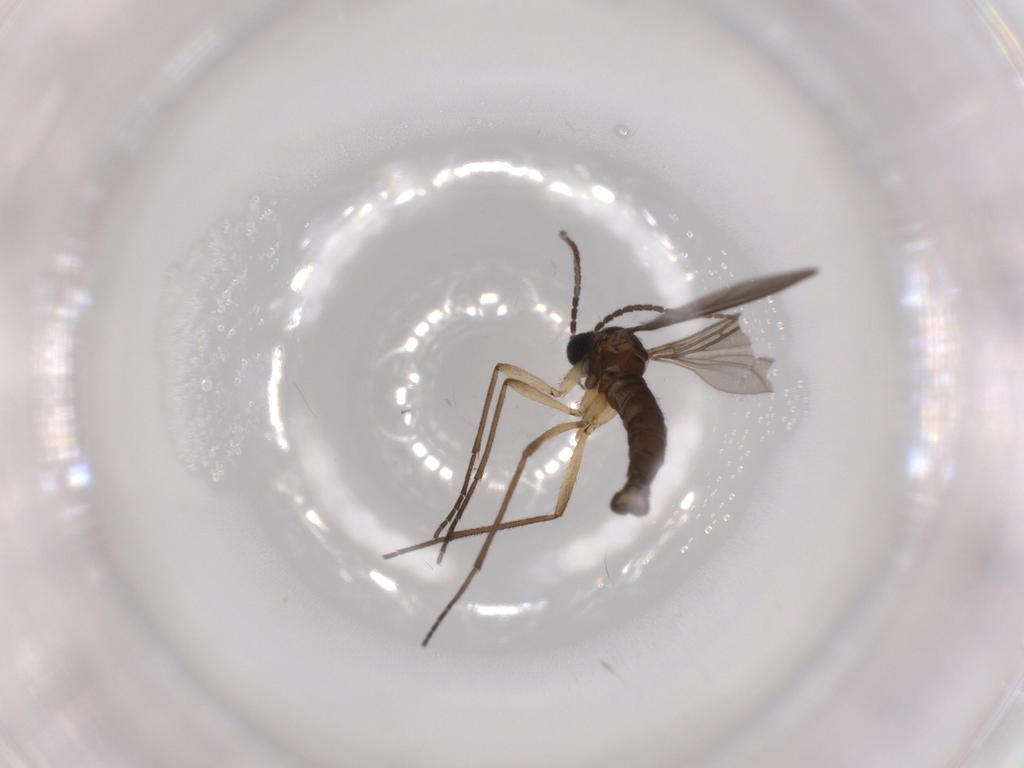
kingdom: Animalia
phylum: Arthropoda
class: Insecta
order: Diptera
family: Sciaridae
